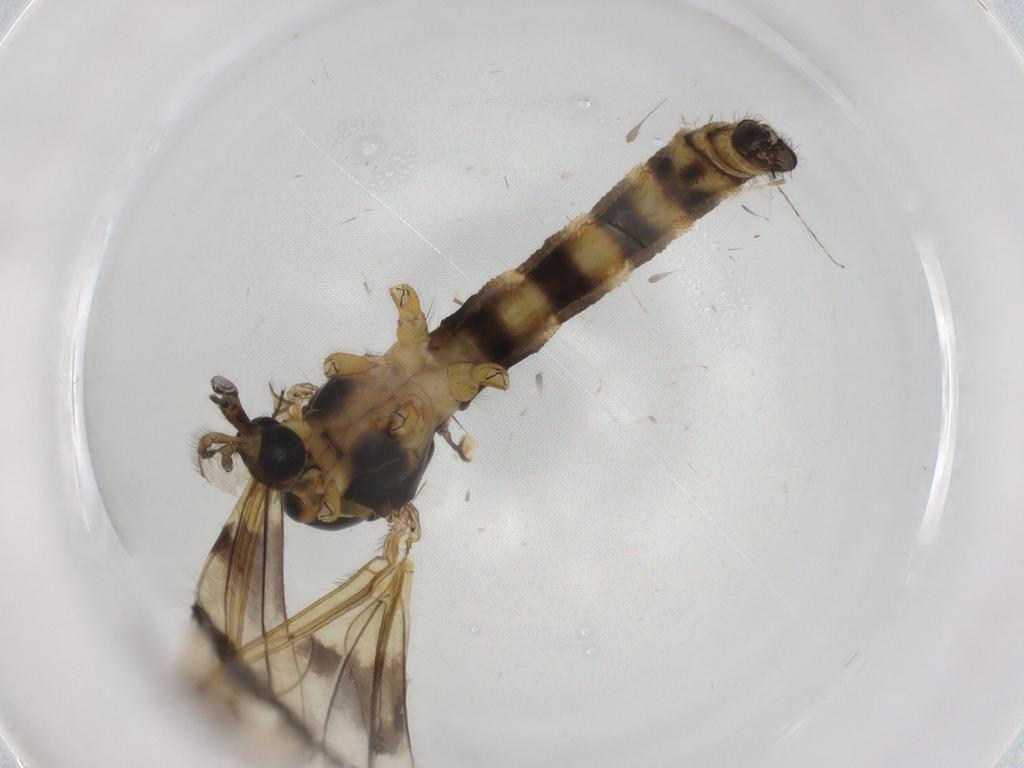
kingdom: Animalia
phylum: Arthropoda
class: Insecta
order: Diptera
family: Limoniidae
